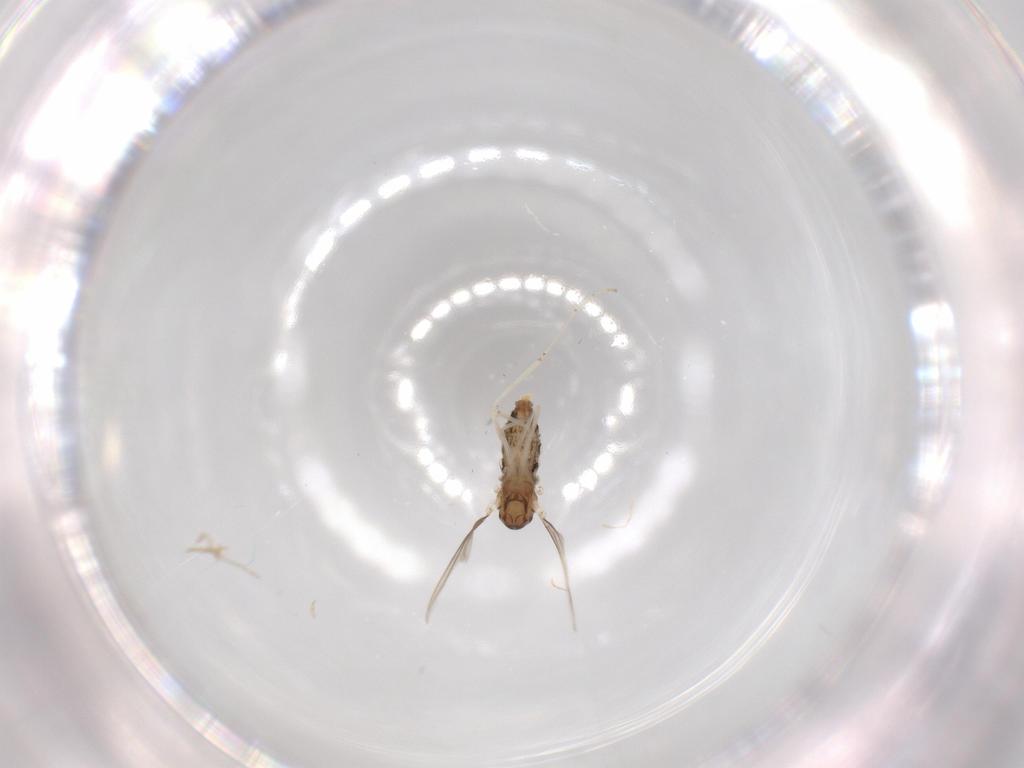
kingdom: Animalia
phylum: Arthropoda
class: Insecta
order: Diptera
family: Cecidomyiidae
